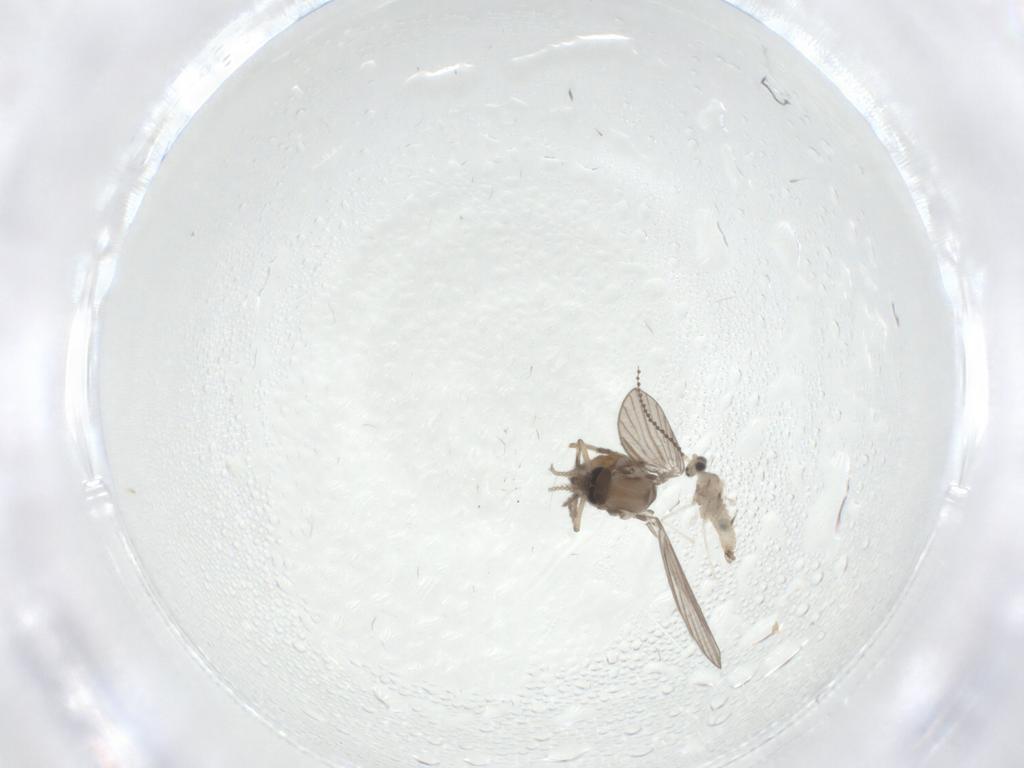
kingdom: Animalia
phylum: Arthropoda
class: Insecta
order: Diptera
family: Psychodidae
